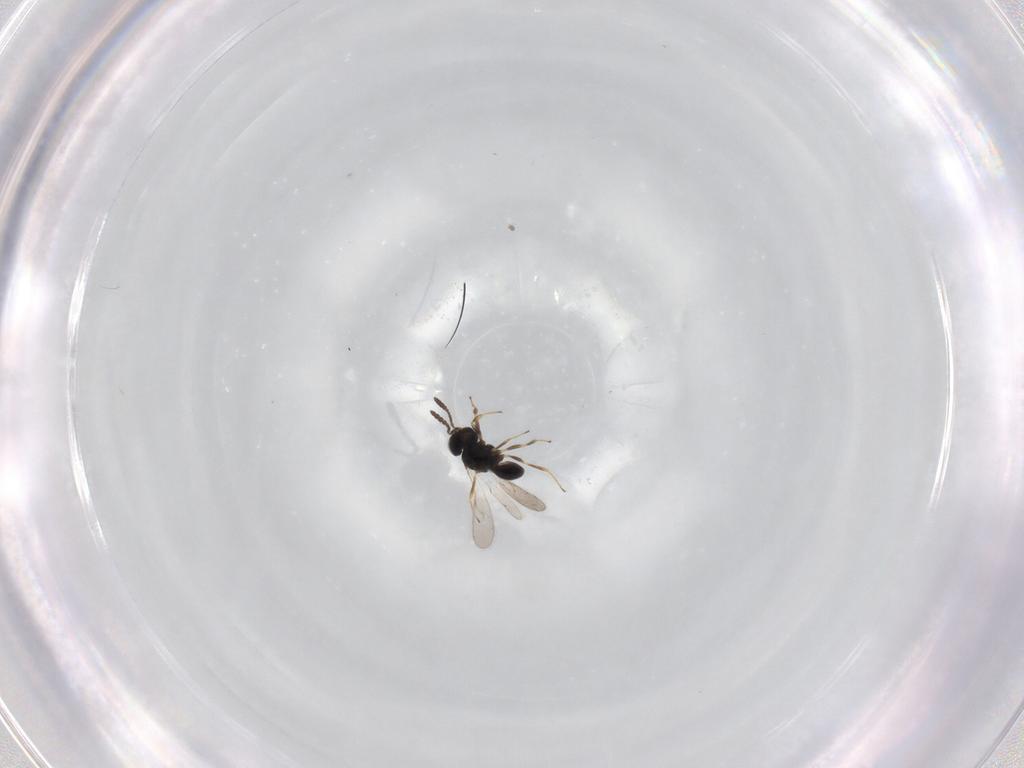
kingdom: Animalia
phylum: Arthropoda
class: Insecta
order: Hymenoptera
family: Scelionidae
